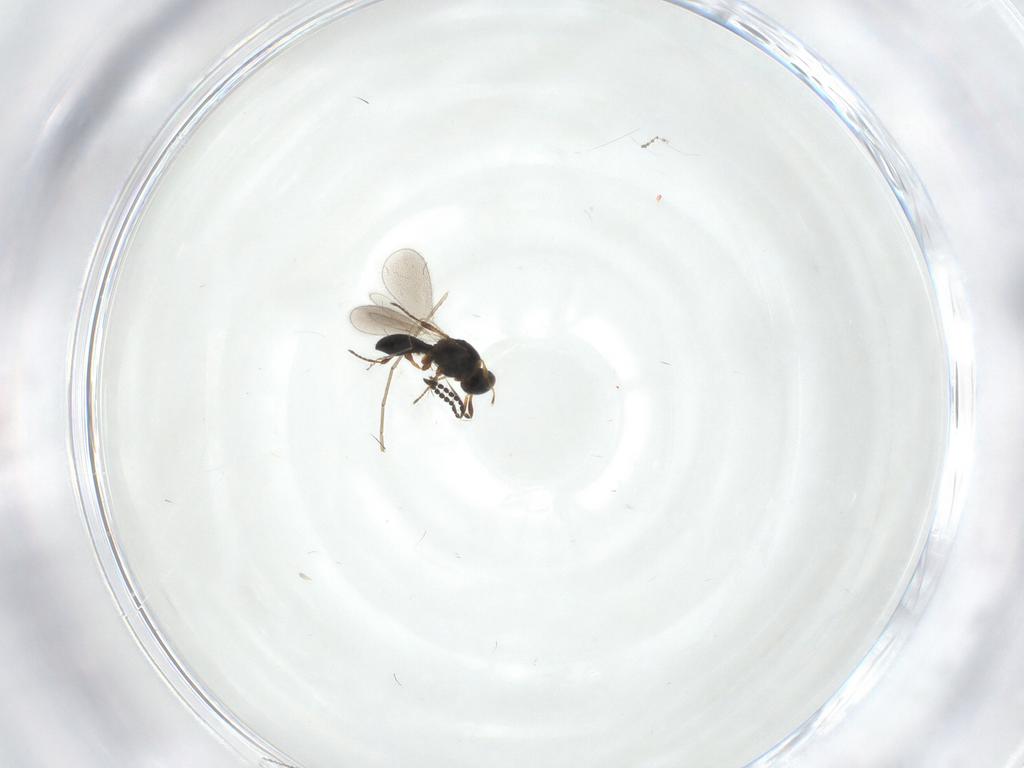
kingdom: Animalia
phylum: Arthropoda
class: Insecta
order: Hymenoptera
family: Platygastridae
